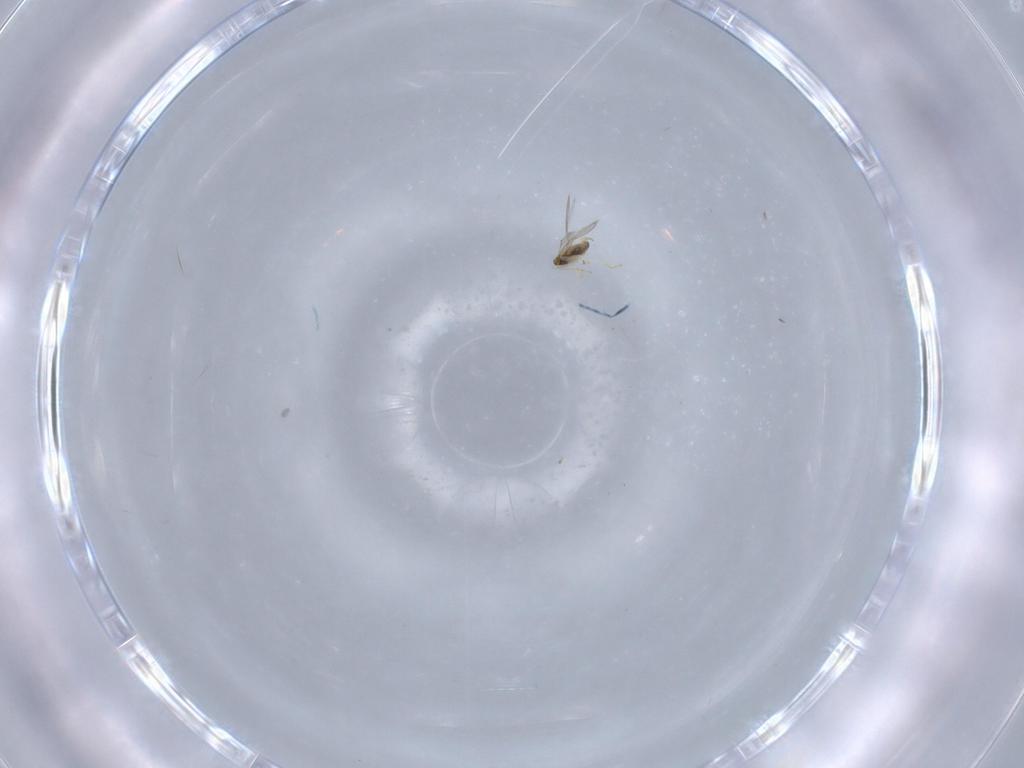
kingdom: Animalia
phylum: Arthropoda
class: Insecta
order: Hymenoptera
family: Aphelinidae
